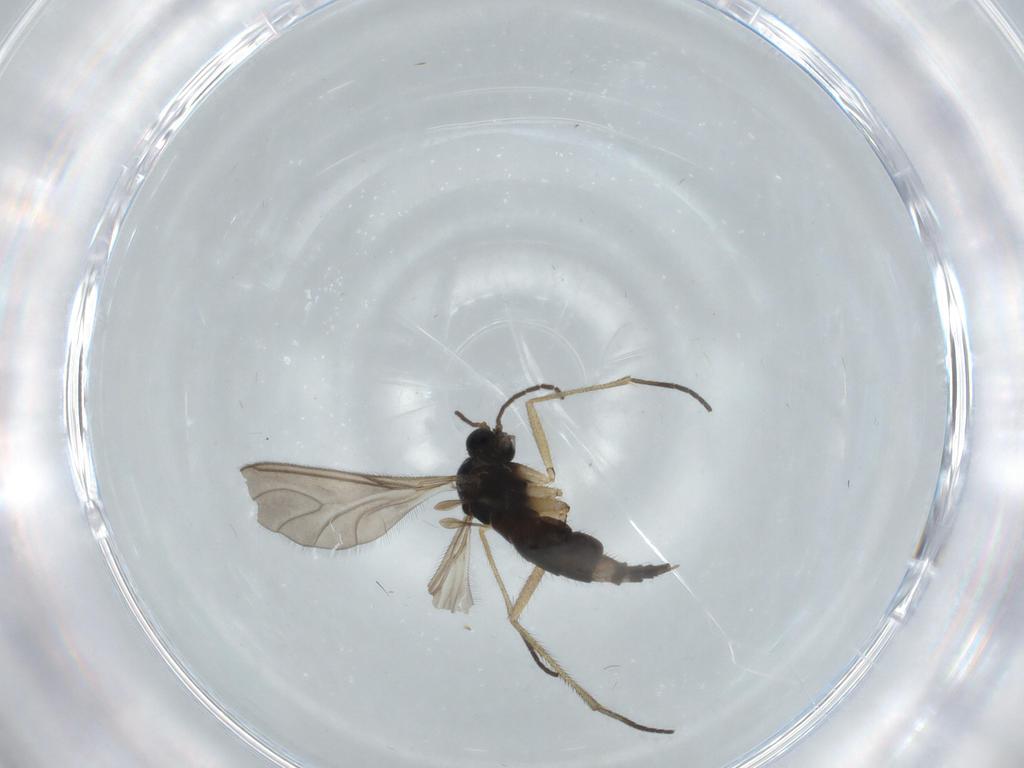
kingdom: Animalia
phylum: Arthropoda
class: Insecta
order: Diptera
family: Sciaridae
